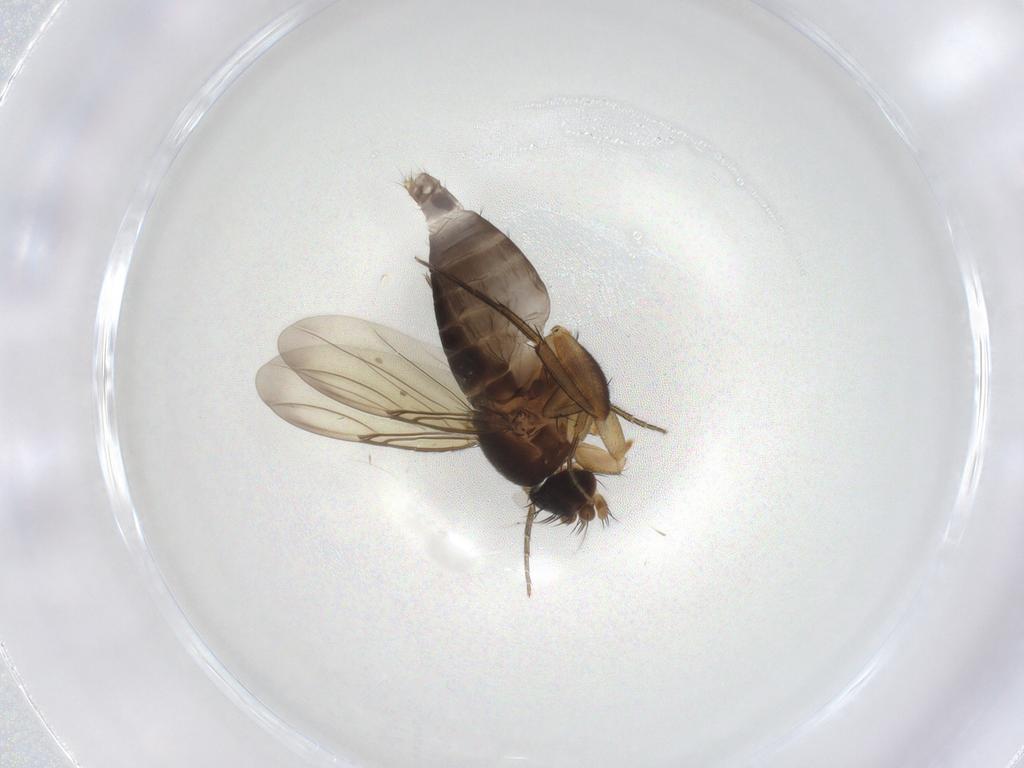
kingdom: Animalia
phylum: Arthropoda
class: Insecta
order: Diptera
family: Phoridae
